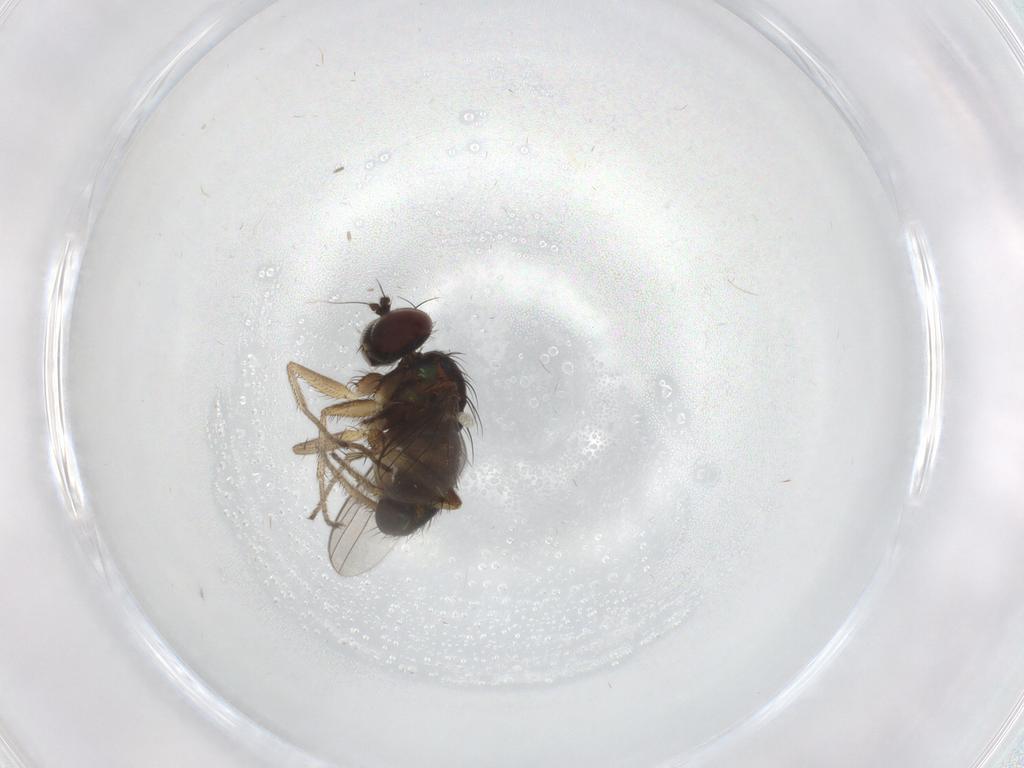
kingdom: Animalia
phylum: Arthropoda
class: Insecta
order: Diptera
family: Dolichopodidae
